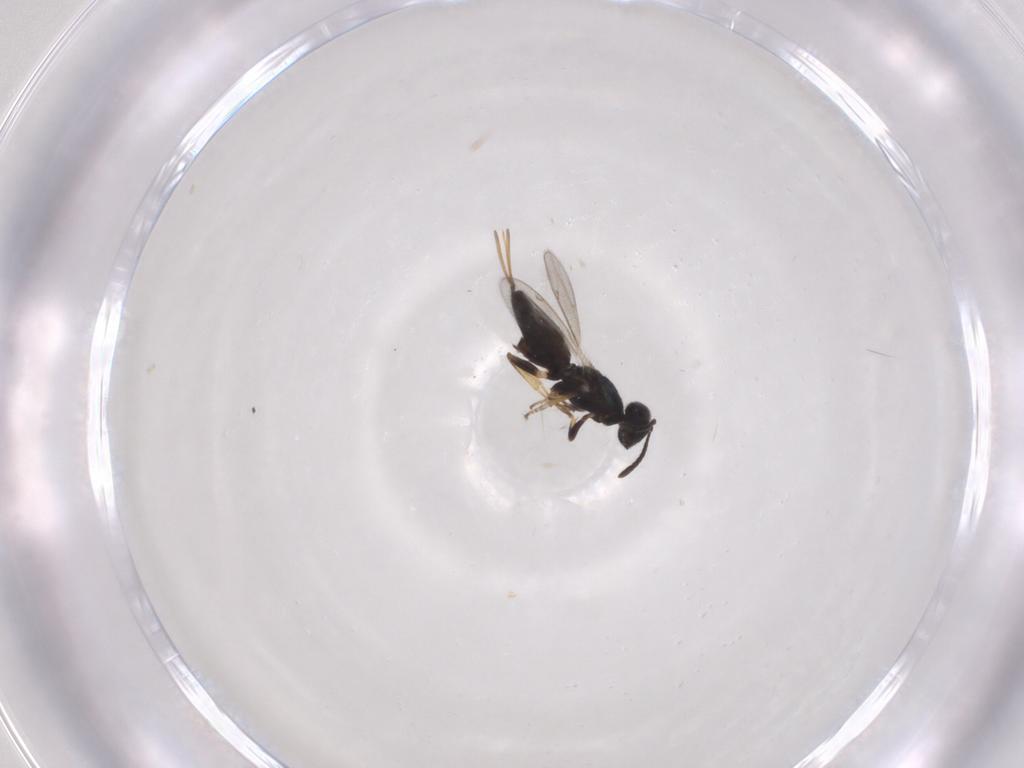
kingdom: Animalia
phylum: Arthropoda
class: Insecta
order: Hymenoptera
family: Eupelmidae
